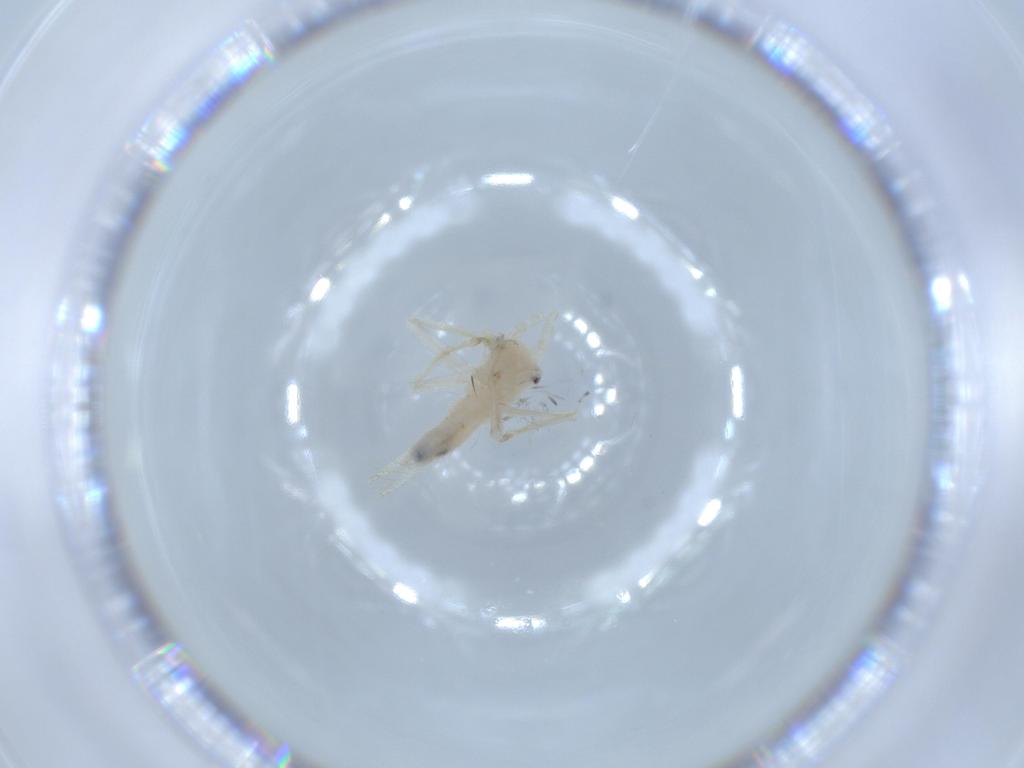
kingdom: Animalia
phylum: Arthropoda
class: Insecta
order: Orthoptera
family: Trigonidiidae
